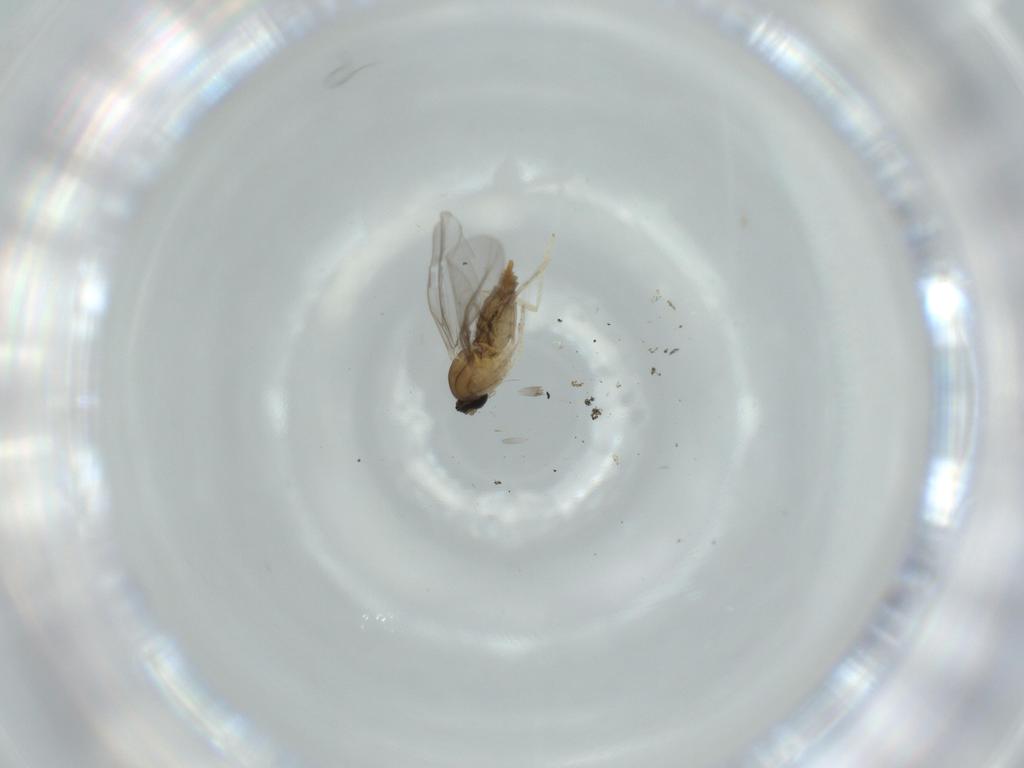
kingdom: Animalia
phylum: Arthropoda
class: Insecta
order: Diptera
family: Cecidomyiidae
